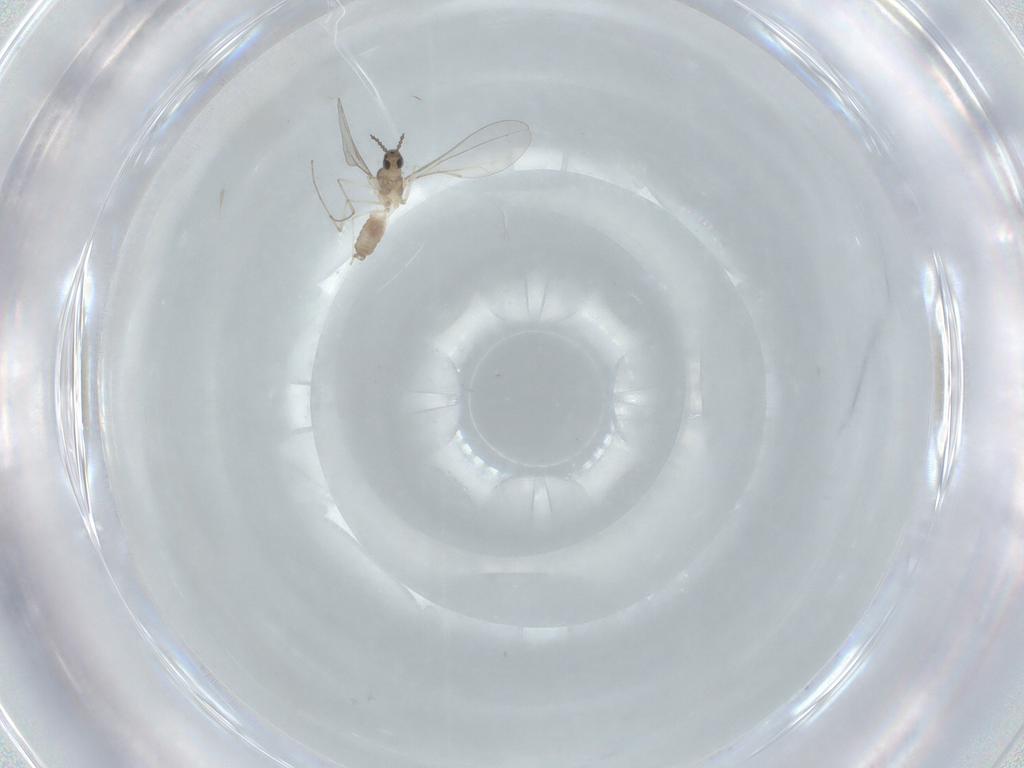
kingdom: Animalia
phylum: Arthropoda
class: Insecta
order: Diptera
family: Cecidomyiidae
